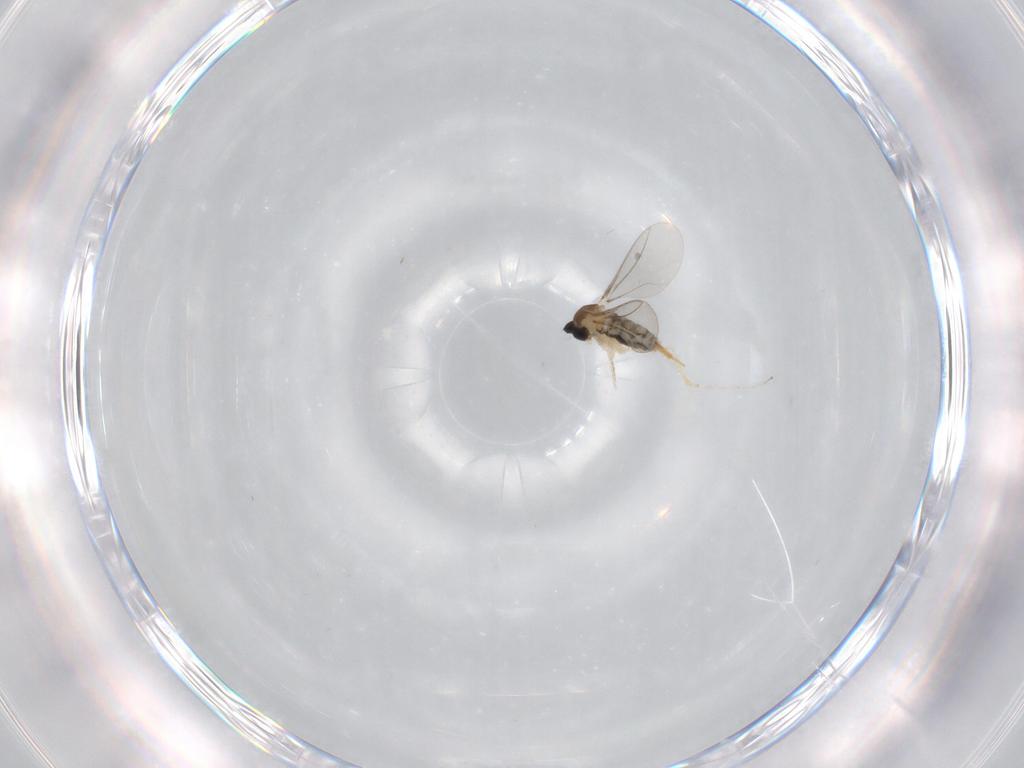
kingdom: Animalia
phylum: Arthropoda
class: Insecta
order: Diptera
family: Cecidomyiidae
